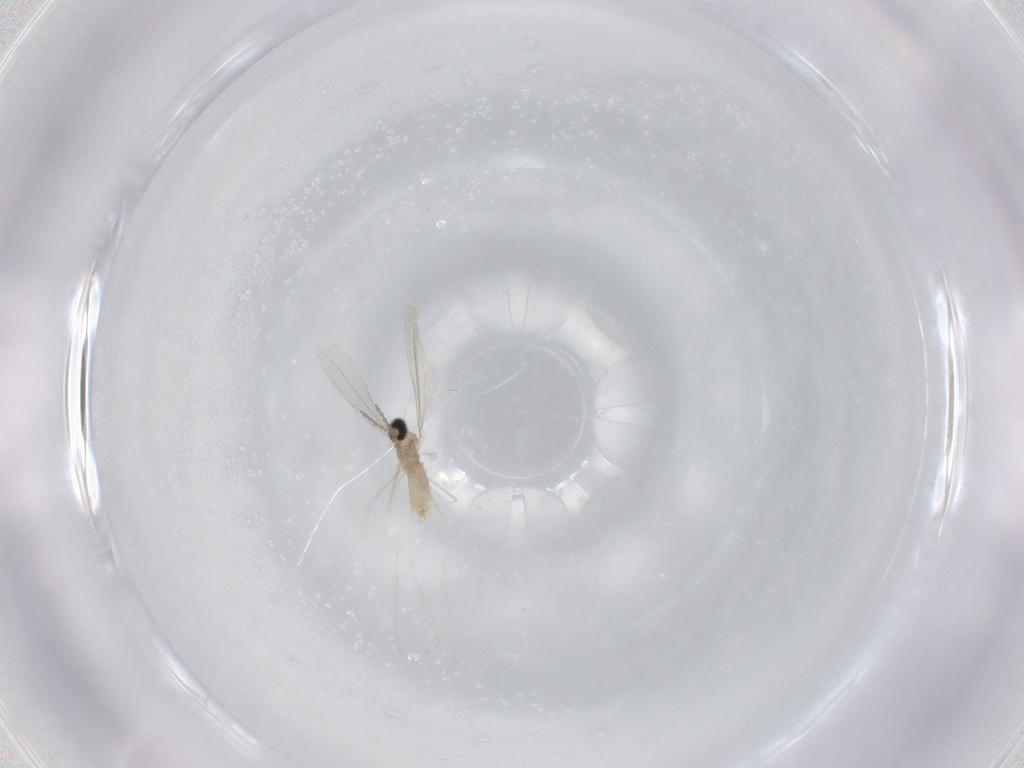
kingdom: Animalia
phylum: Arthropoda
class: Insecta
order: Diptera
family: Cecidomyiidae
